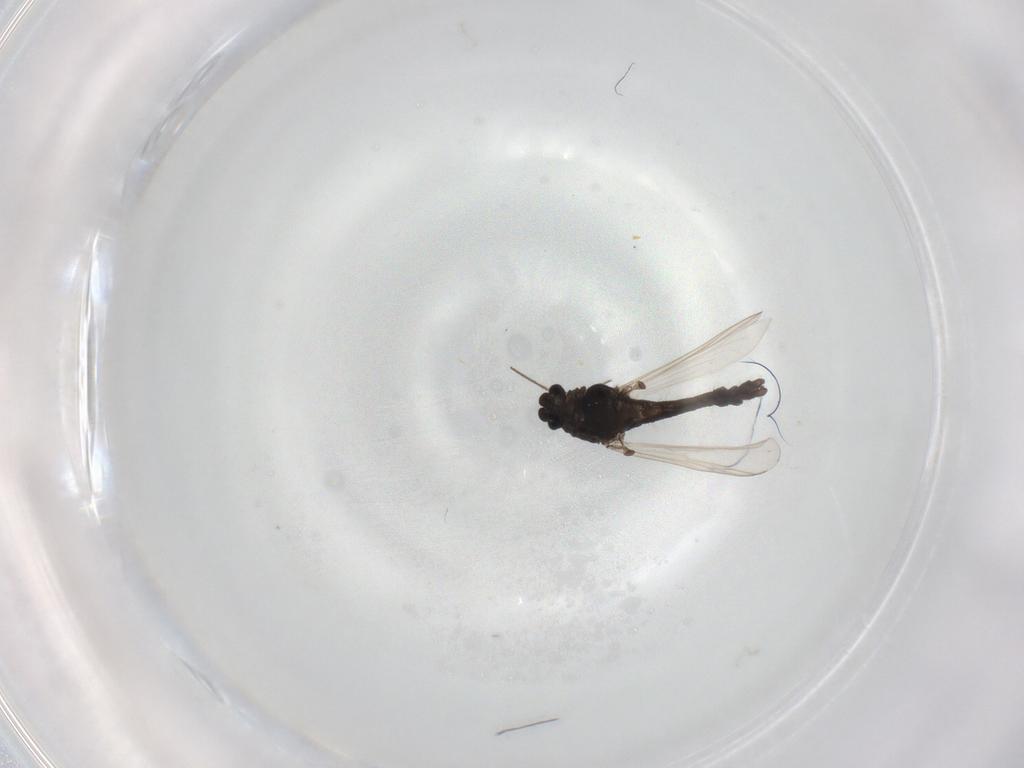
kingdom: Animalia
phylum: Arthropoda
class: Insecta
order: Diptera
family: Chironomidae
